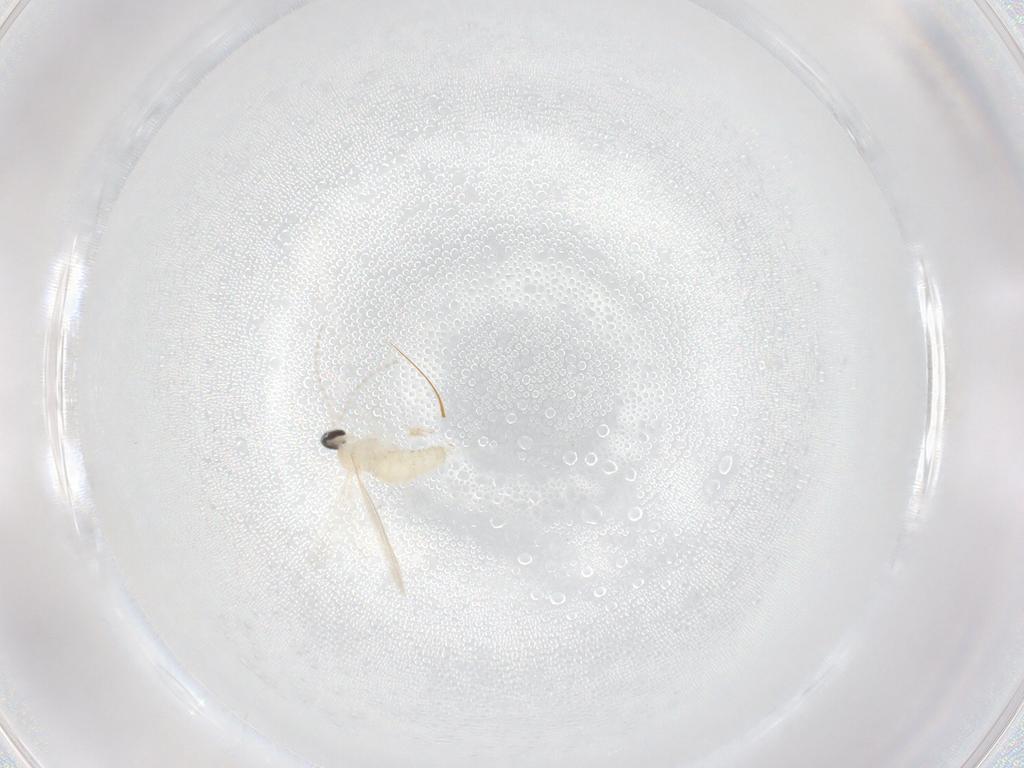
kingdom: Animalia
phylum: Arthropoda
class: Insecta
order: Diptera
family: Cecidomyiidae
